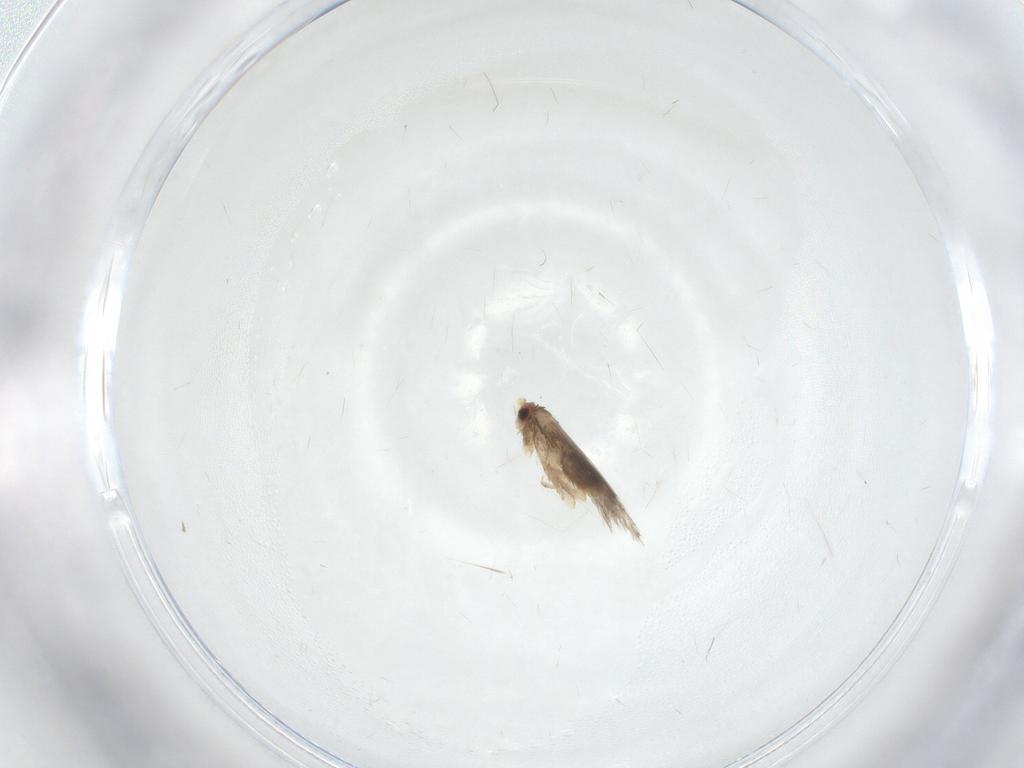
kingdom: Animalia
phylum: Arthropoda
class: Insecta
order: Lepidoptera
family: Nepticulidae
